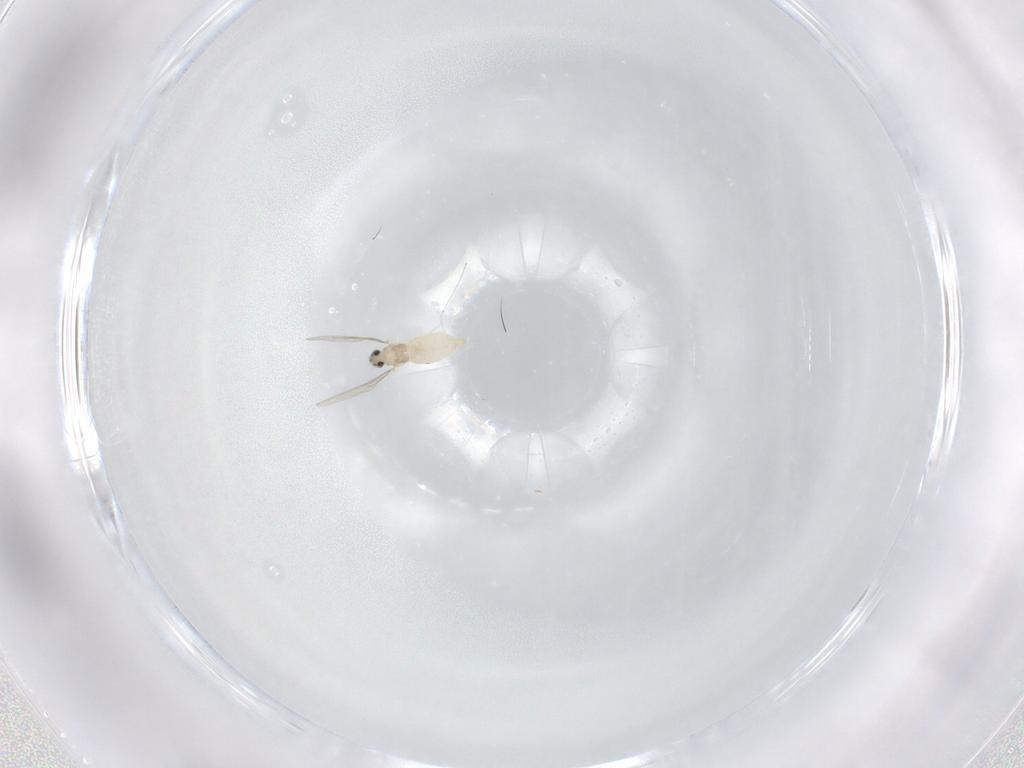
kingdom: Animalia
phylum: Arthropoda
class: Insecta
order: Diptera
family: Cecidomyiidae
